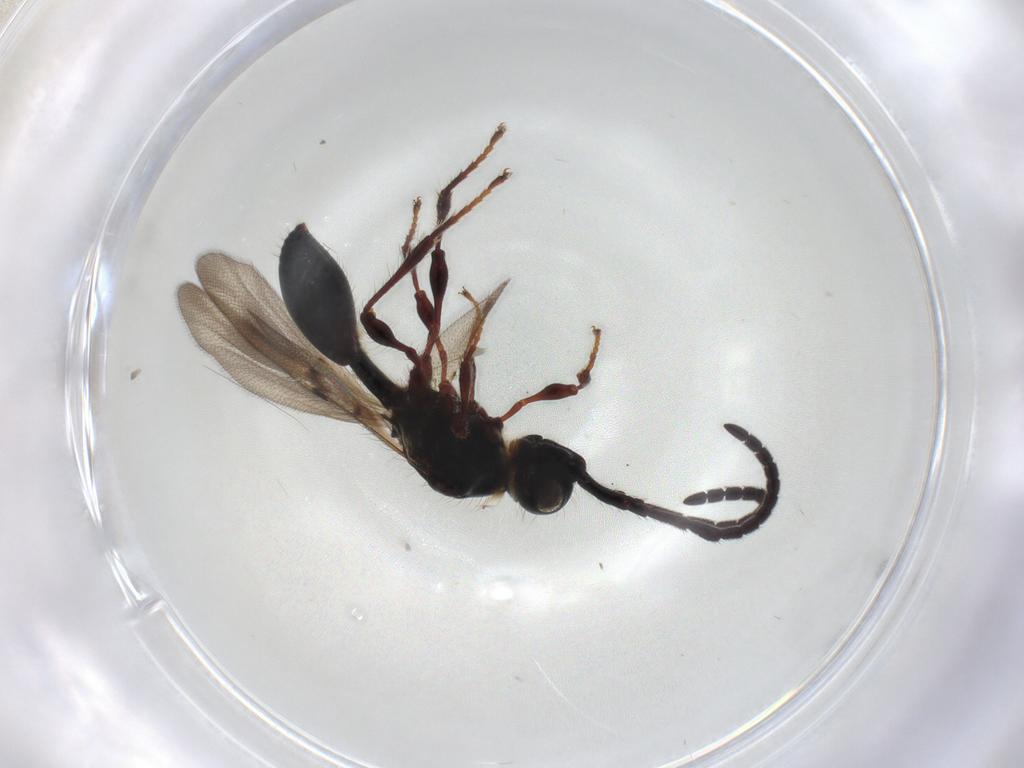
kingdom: Animalia
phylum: Arthropoda
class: Insecta
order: Hymenoptera
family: Diapriidae
